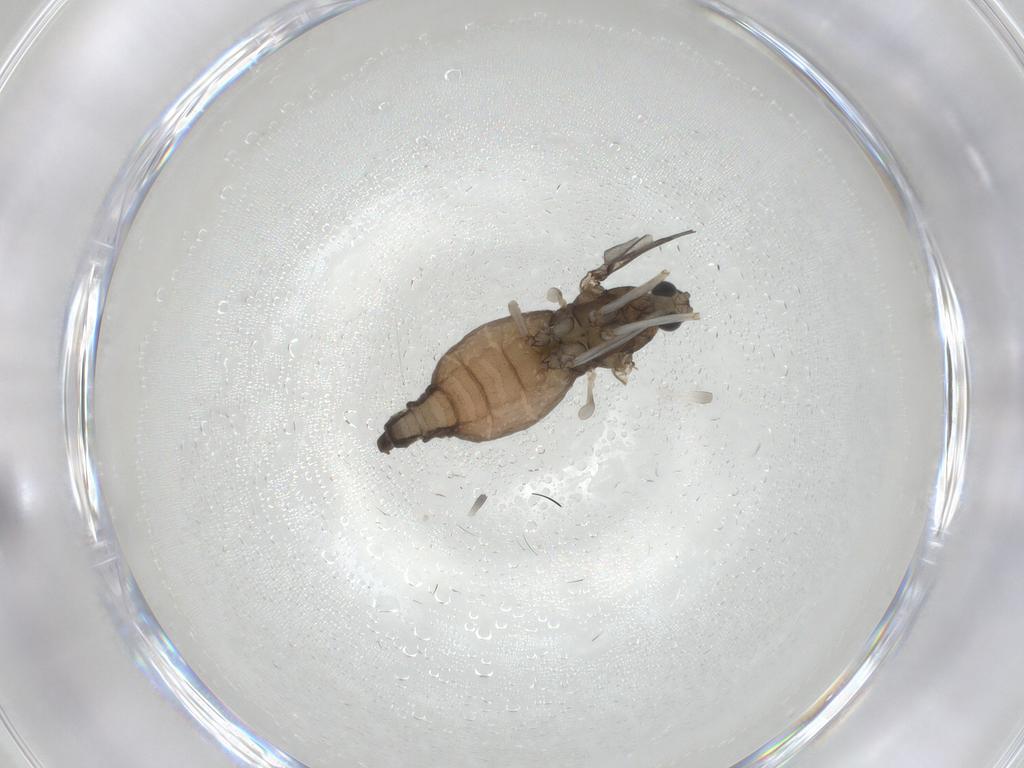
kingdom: Animalia
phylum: Arthropoda
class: Insecta
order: Diptera
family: Cecidomyiidae
